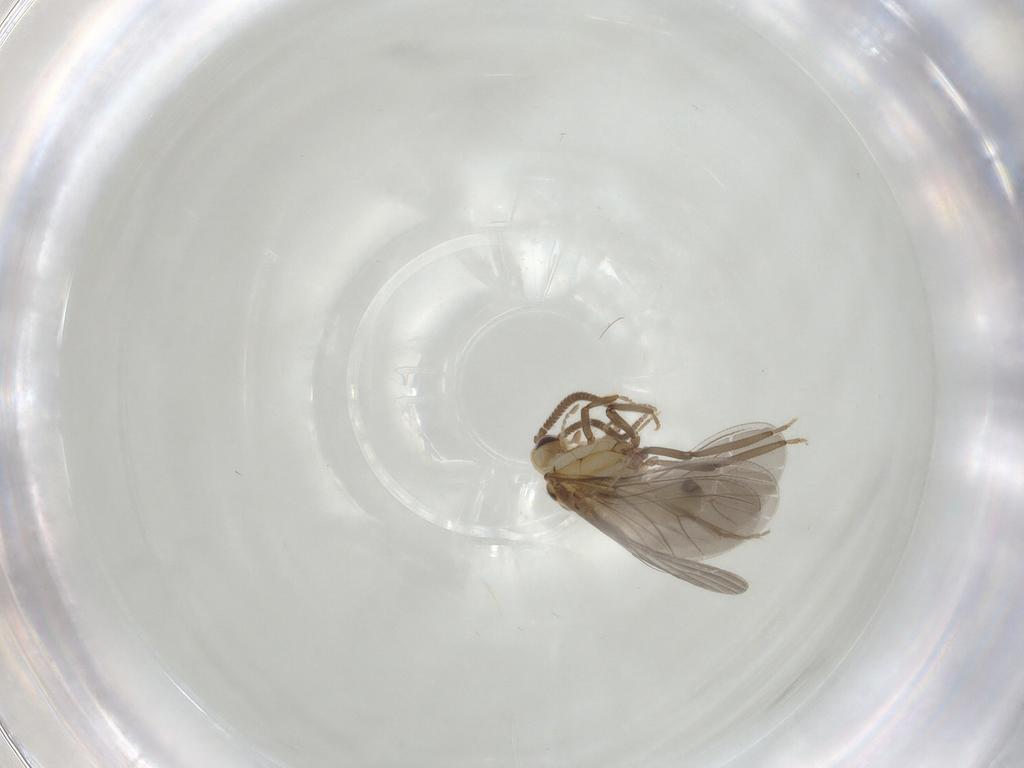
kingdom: Animalia
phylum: Arthropoda
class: Insecta
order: Neuroptera
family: Coniopterygidae
